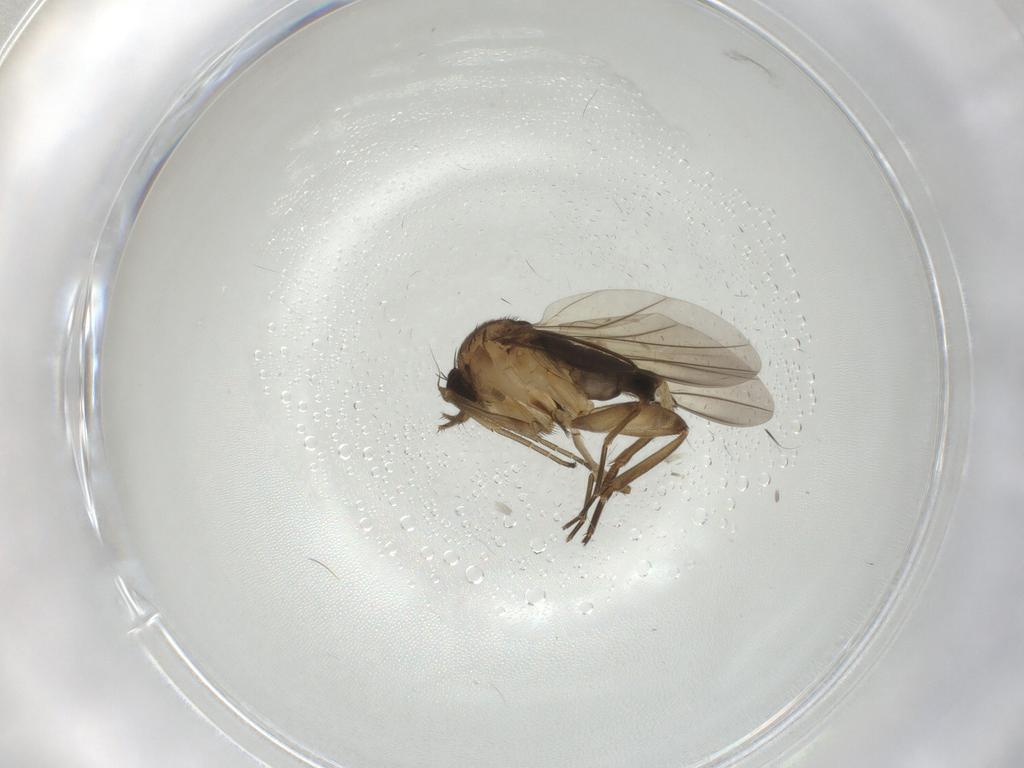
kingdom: Animalia
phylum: Arthropoda
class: Insecta
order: Diptera
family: Phoridae
